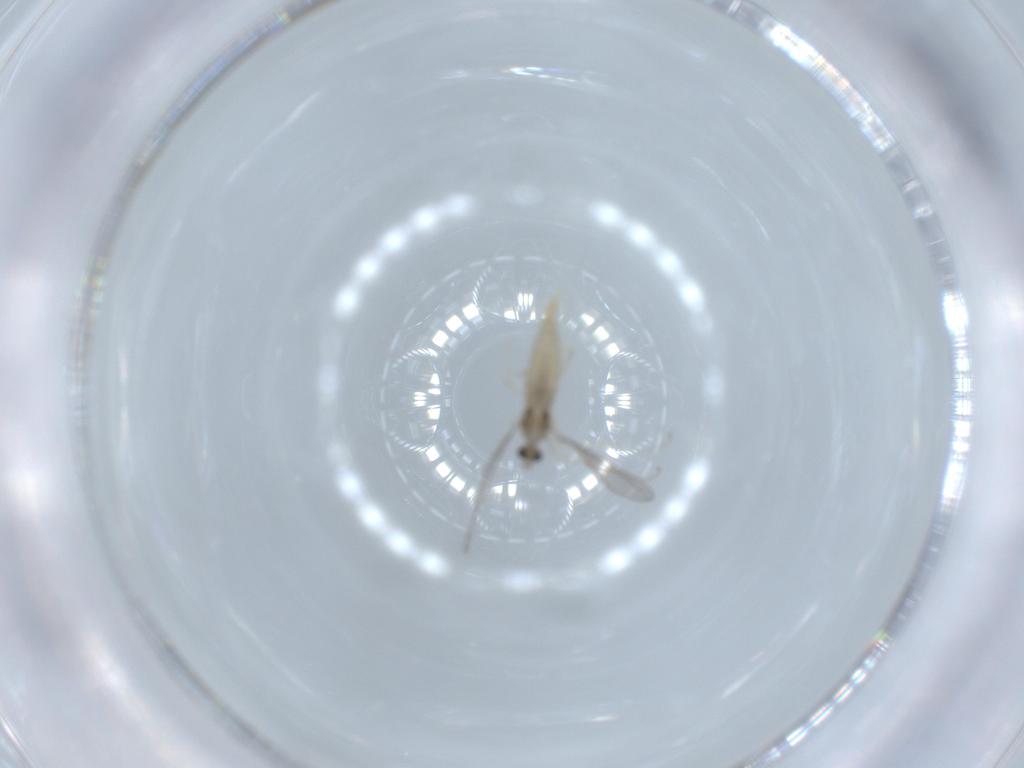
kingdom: Animalia
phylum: Arthropoda
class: Insecta
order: Diptera
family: Cecidomyiidae
